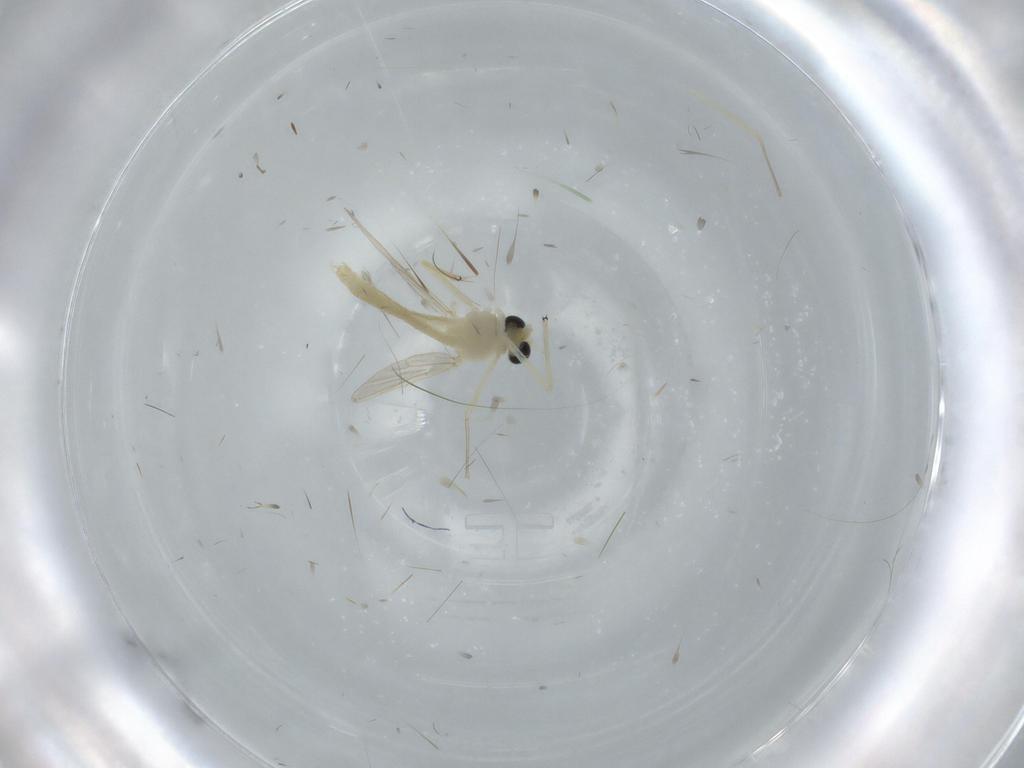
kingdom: Animalia
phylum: Arthropoda
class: Insecta
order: Diptera
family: Chironomidae
